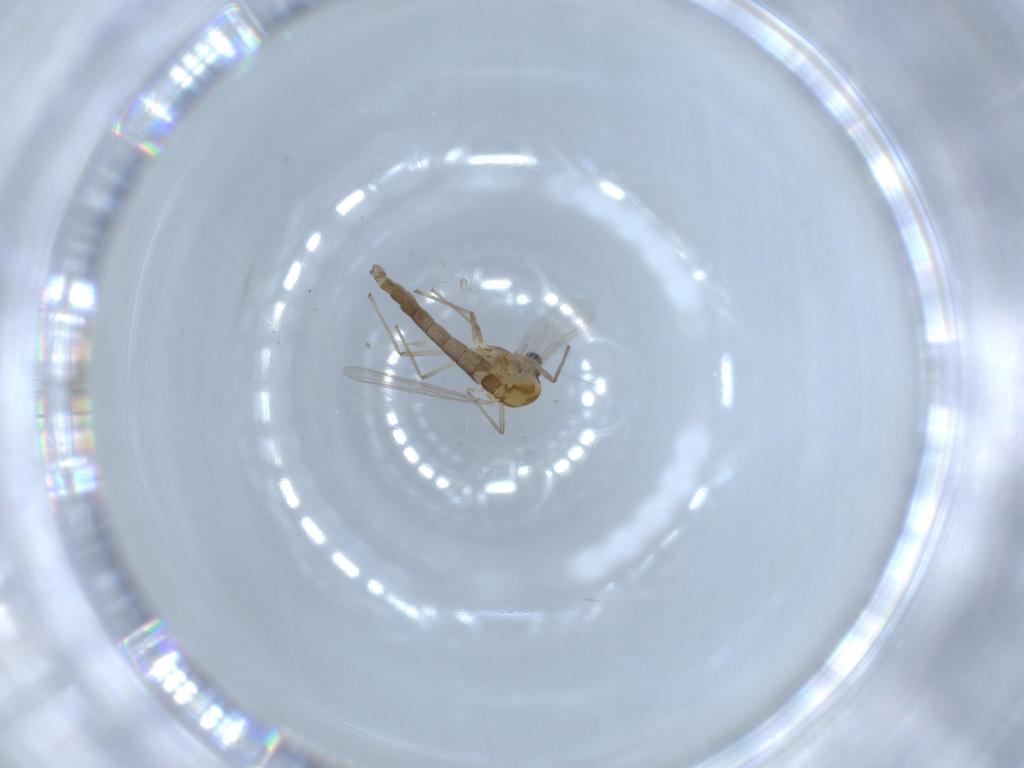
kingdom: Animalia
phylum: Arthropoda
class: Insecta
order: Diptera
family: Chironomidae
